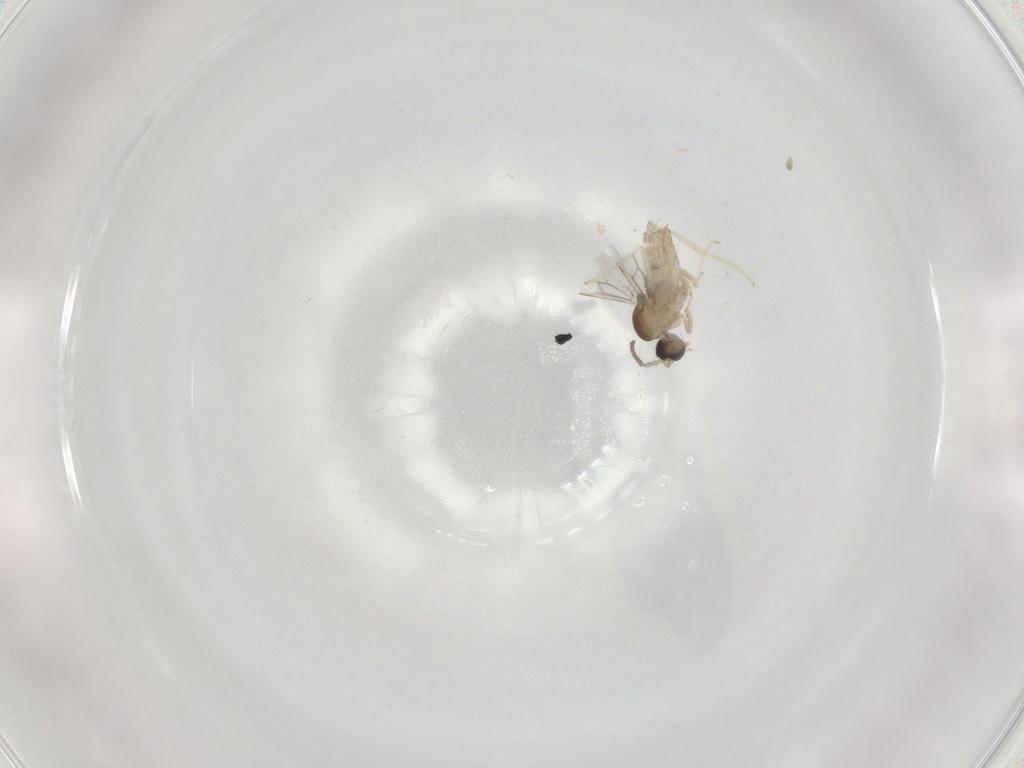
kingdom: Animalia
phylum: Arthropoda
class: Insecta
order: Diptera
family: Cecidomyiidae
